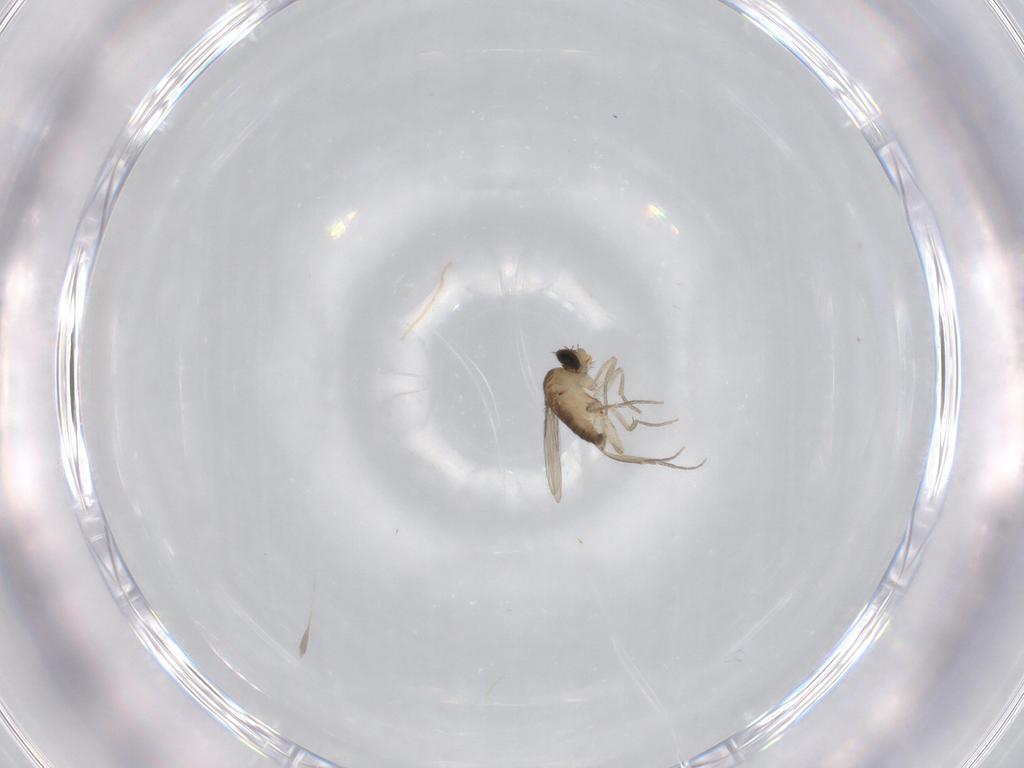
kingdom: Animalia
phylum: Arthropoda
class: Insecta
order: Diptera
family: Phoridae
